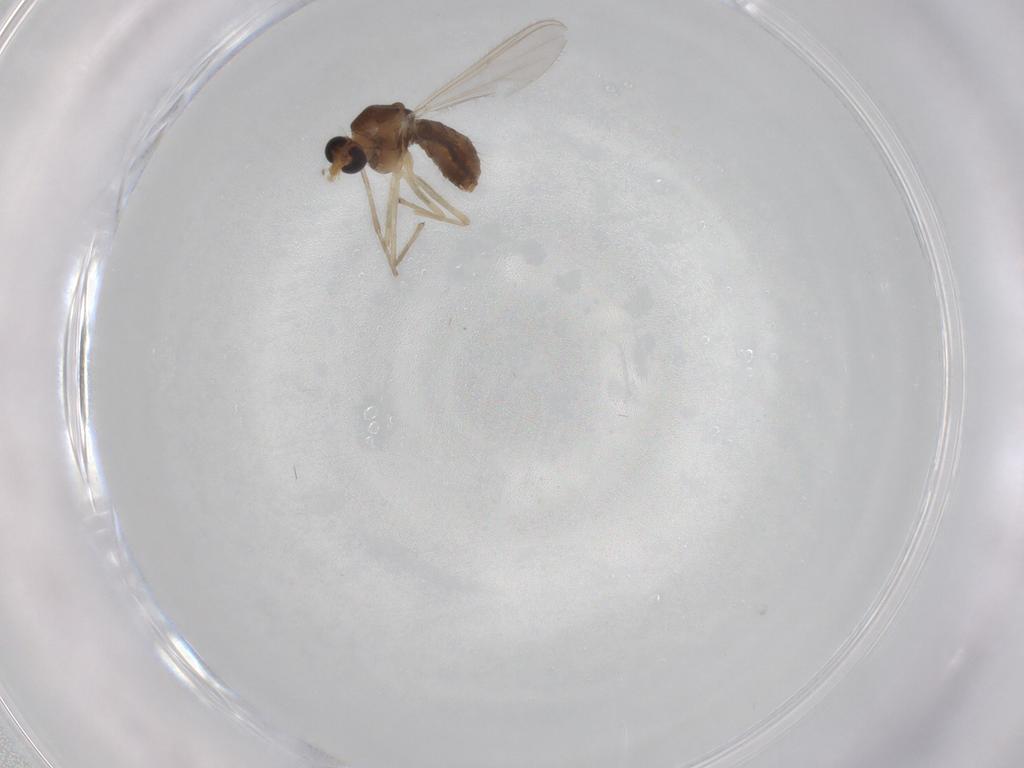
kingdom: Animalia
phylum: Arthropoda
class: Insecta
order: Diptera
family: Chironomidae
